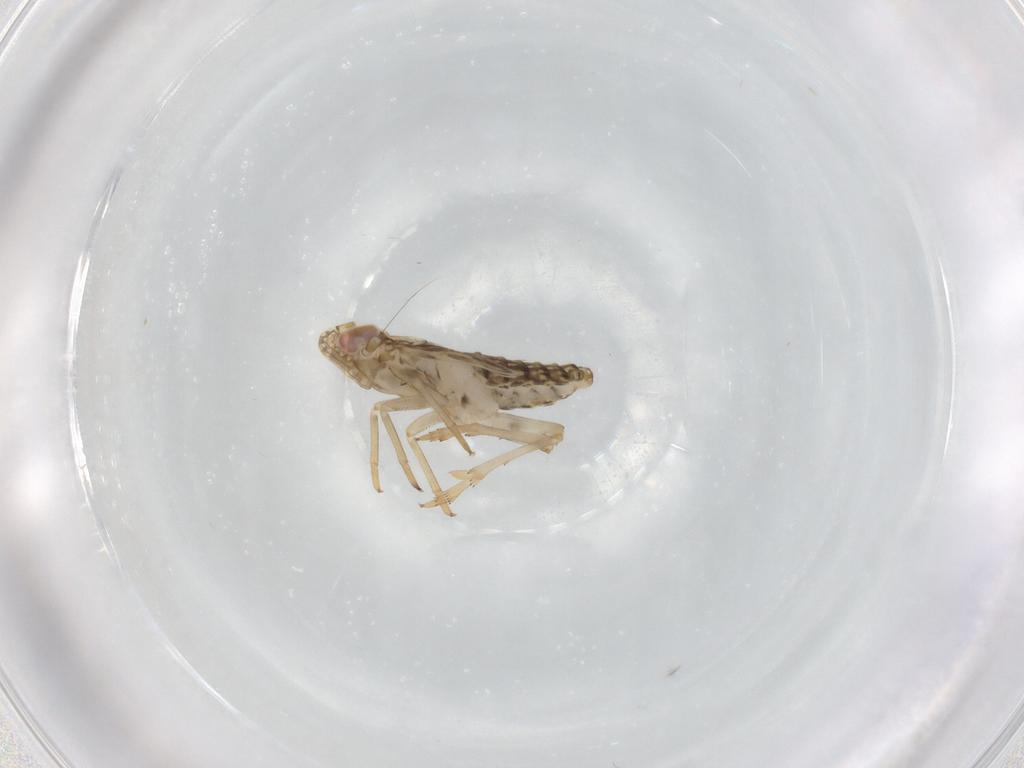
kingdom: Animalia
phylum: Arthropoda
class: Insecta
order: Hemiptera
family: Delphacidae
